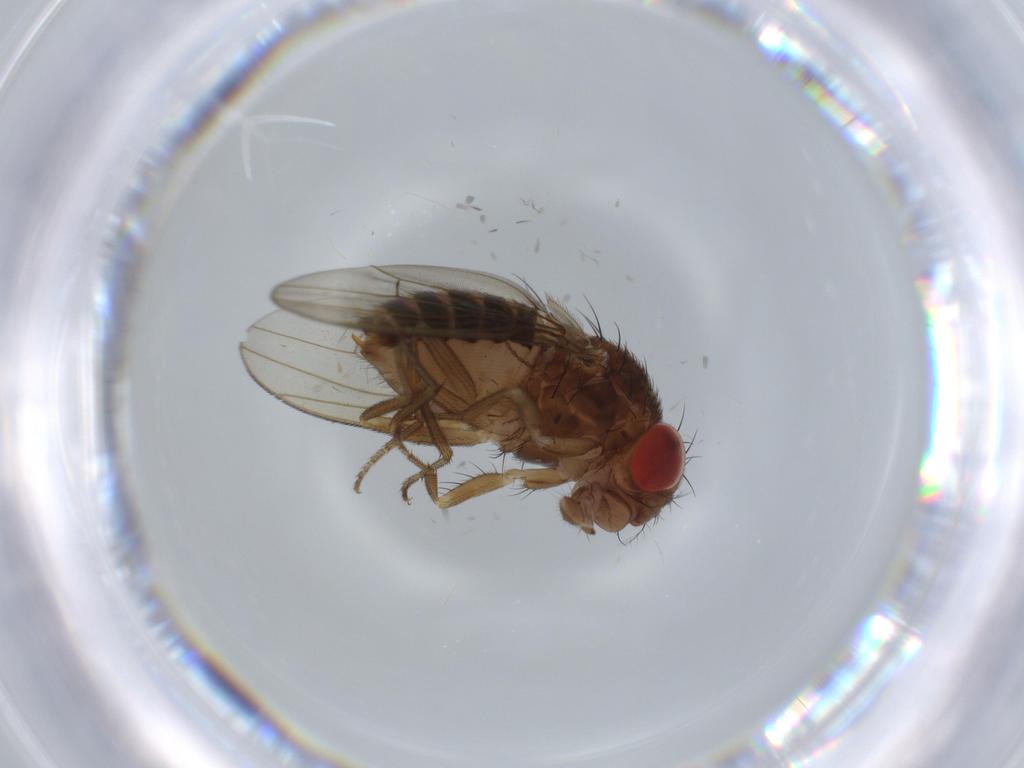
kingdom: Animalia
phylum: Arthropoda
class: Insecta
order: Diptera
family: Drosophilidae
